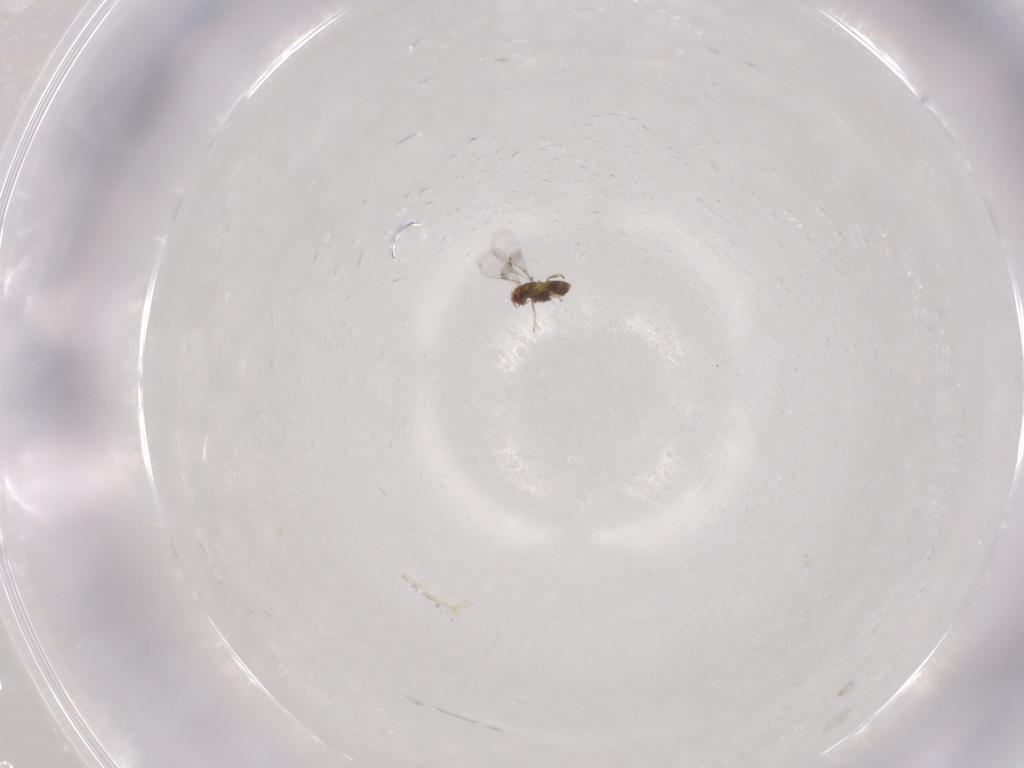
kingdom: Animalia
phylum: Arthropoda
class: Insecta
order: Hymenoptera
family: Trichogrammatidae
